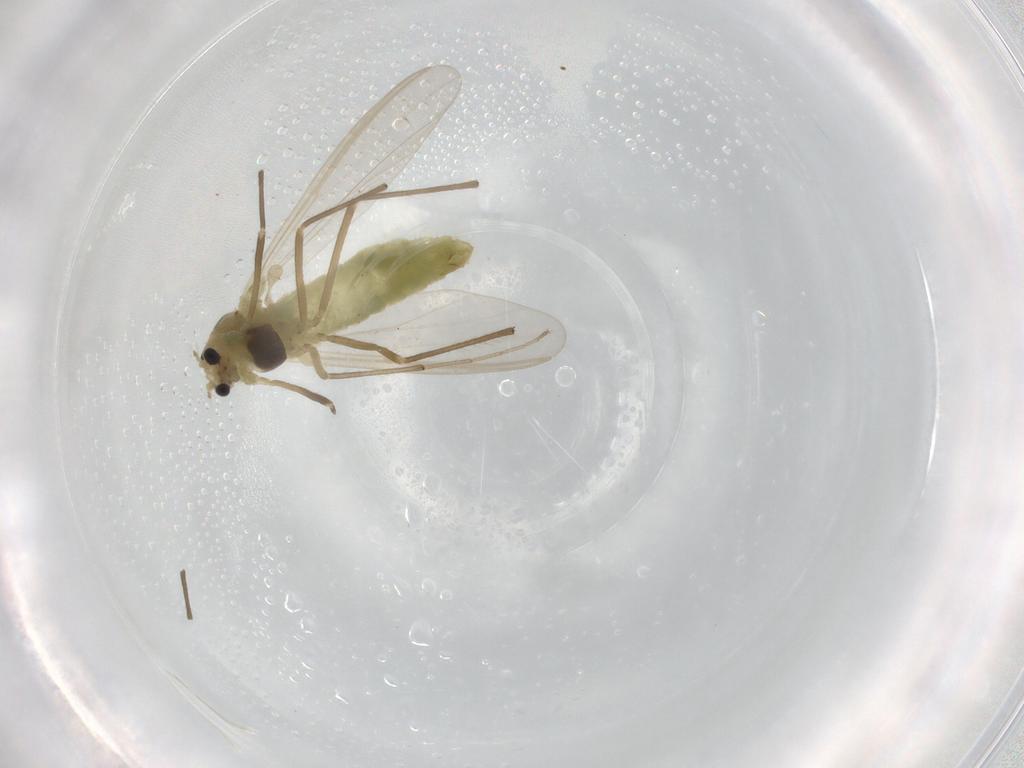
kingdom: Animalia
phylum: Arthropoda
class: Insecta
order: Diptera
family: Chironomidae
